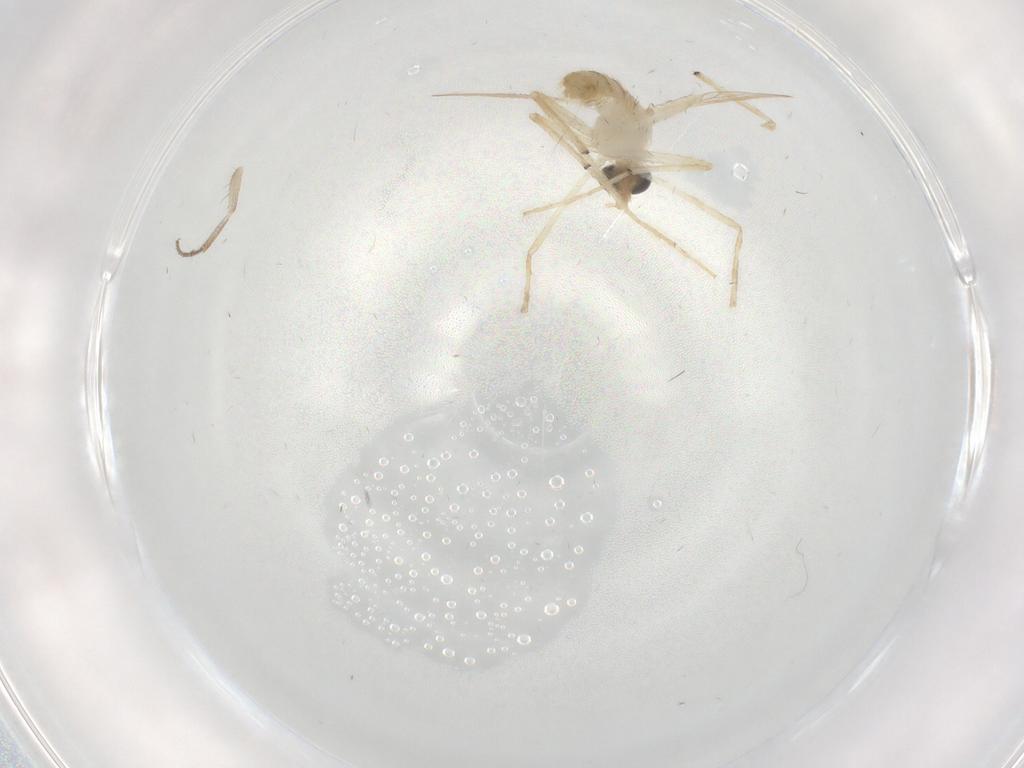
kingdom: Animalia
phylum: Arthropoda
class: Insecta
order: Diptera
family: Chironomidae
